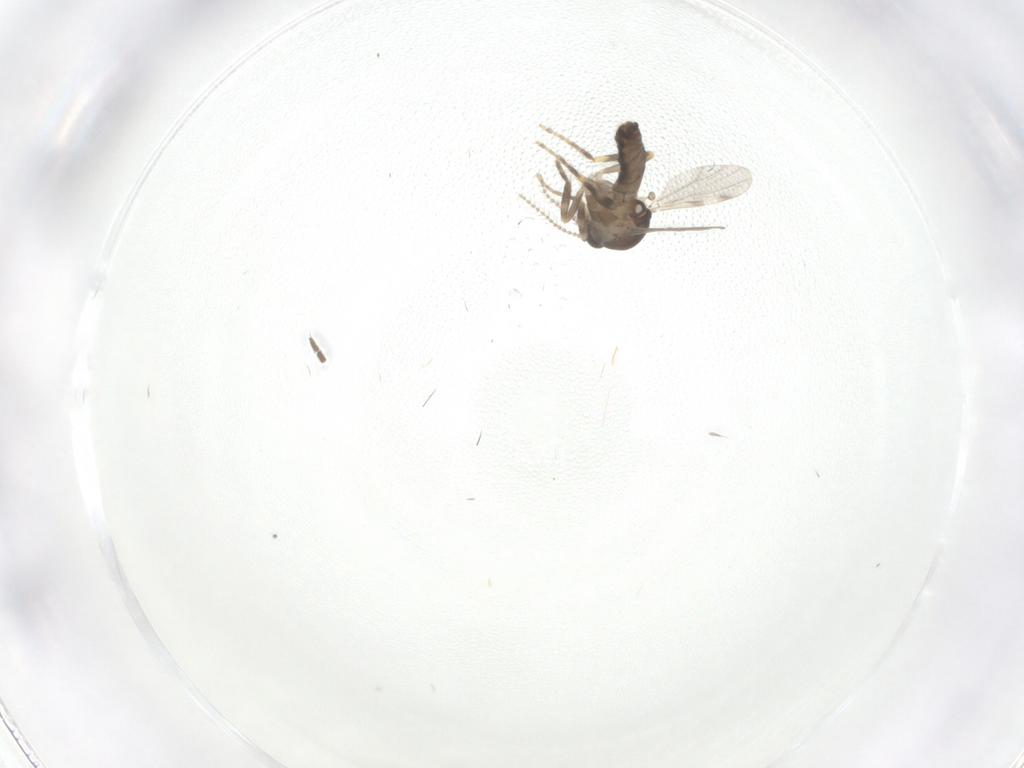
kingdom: Animalia
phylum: Arthropoda
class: Insecta
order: Diptera
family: Ceratopogonidae
